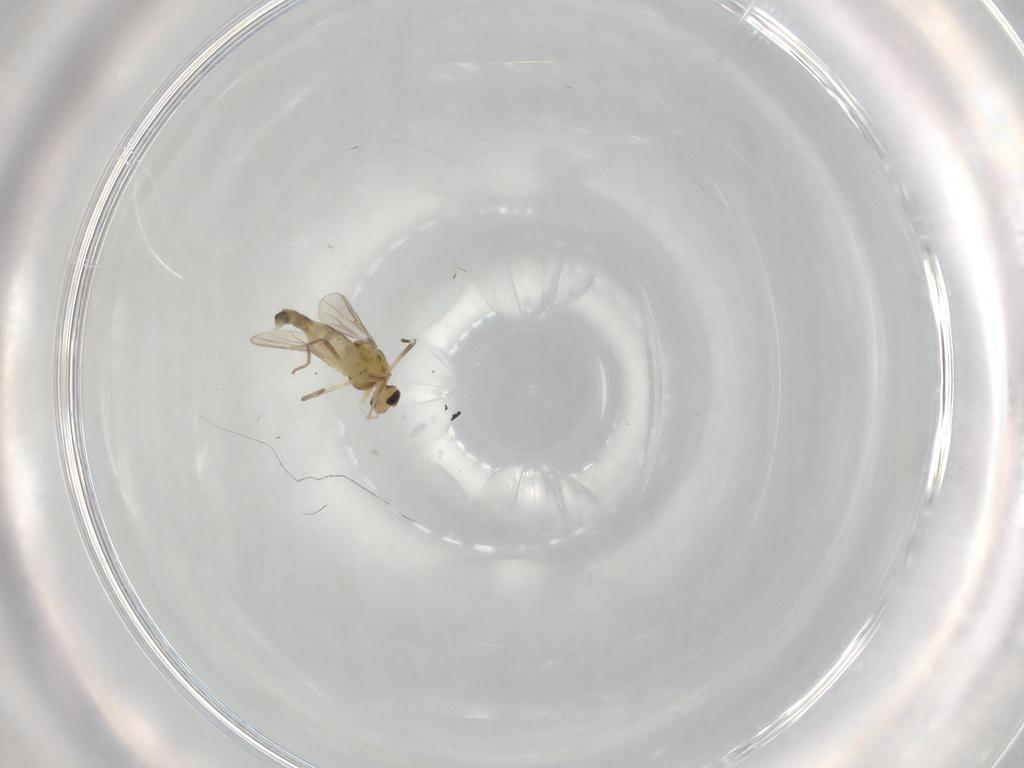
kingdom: Animalia
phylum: Arthropoda
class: Insecta
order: Diptera
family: Chironomidae
